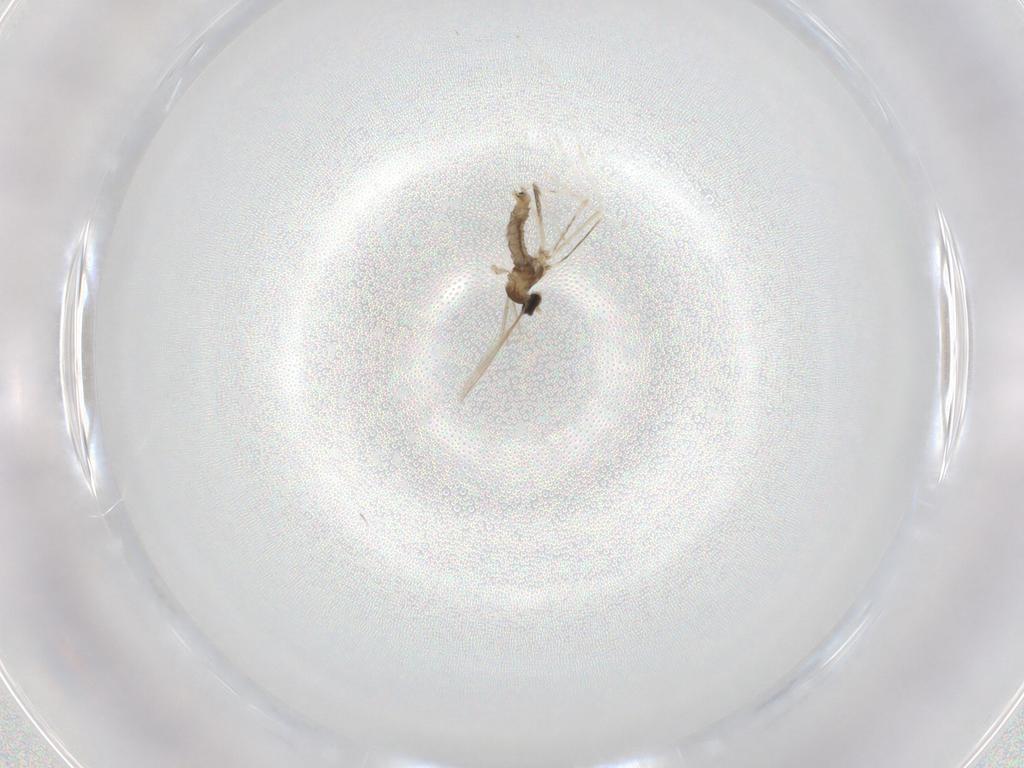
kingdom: Animalia
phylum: Arthropoda
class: Insecta
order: Diptera
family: Cecidomyiidae
